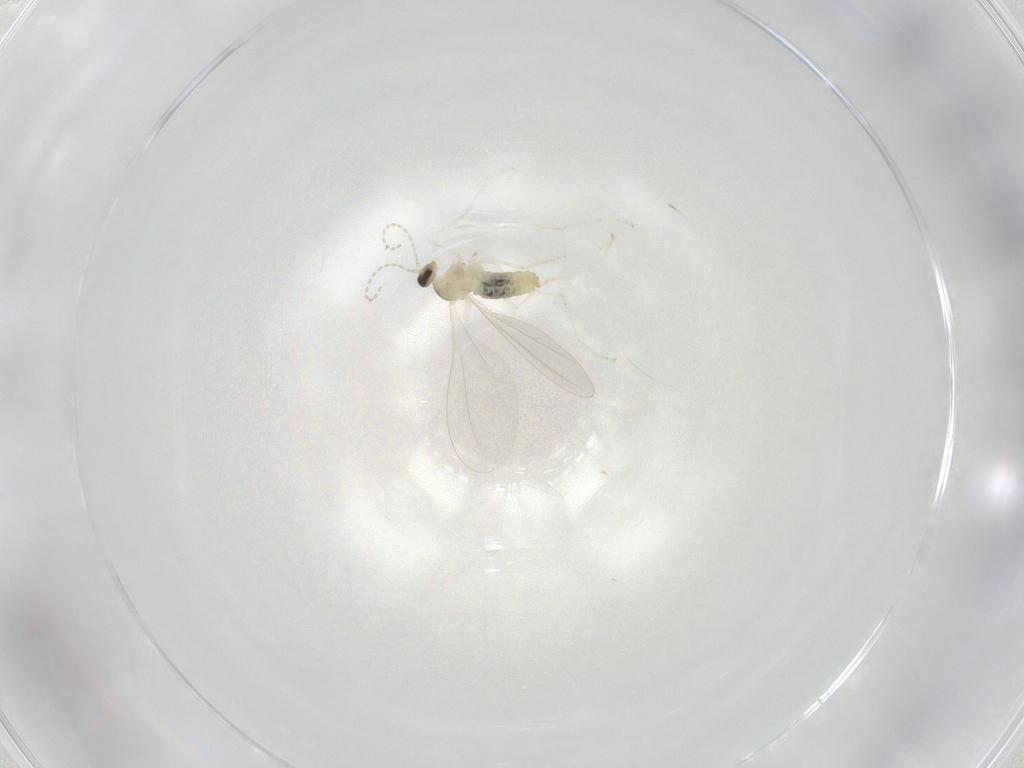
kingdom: Animalia
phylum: Arthropoda
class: Insecta
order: Diptera
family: Cecidomyiidae
